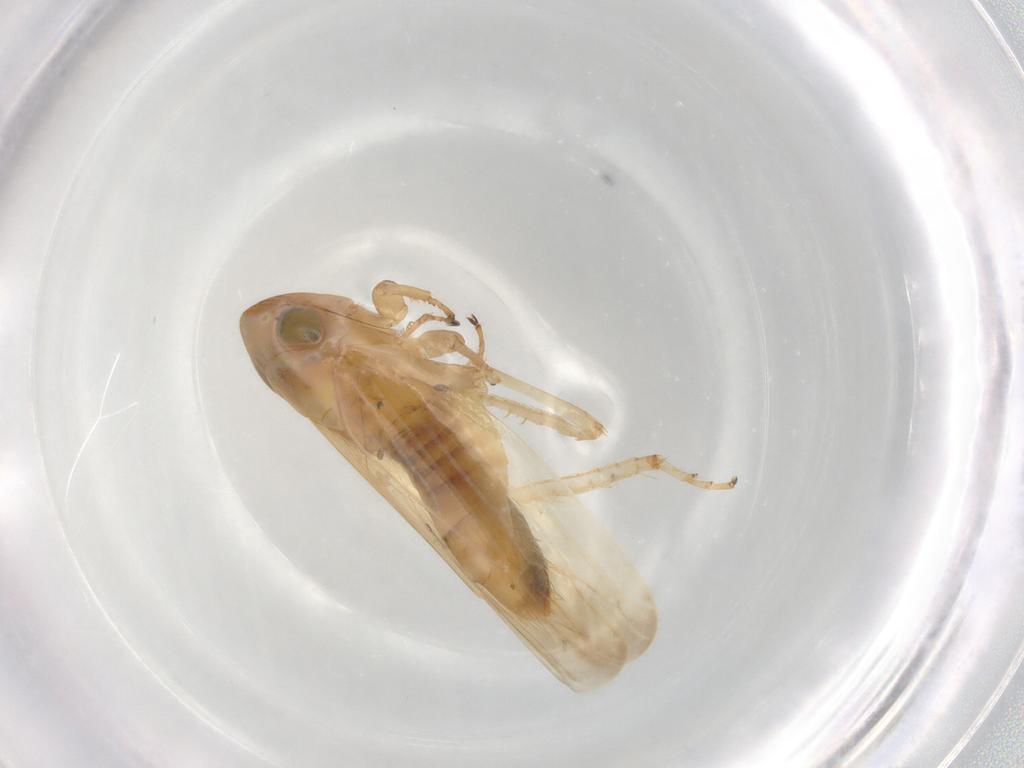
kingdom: Animalia
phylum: Arthropoda
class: Insecta
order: Hemiptera
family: Cicadellidae
